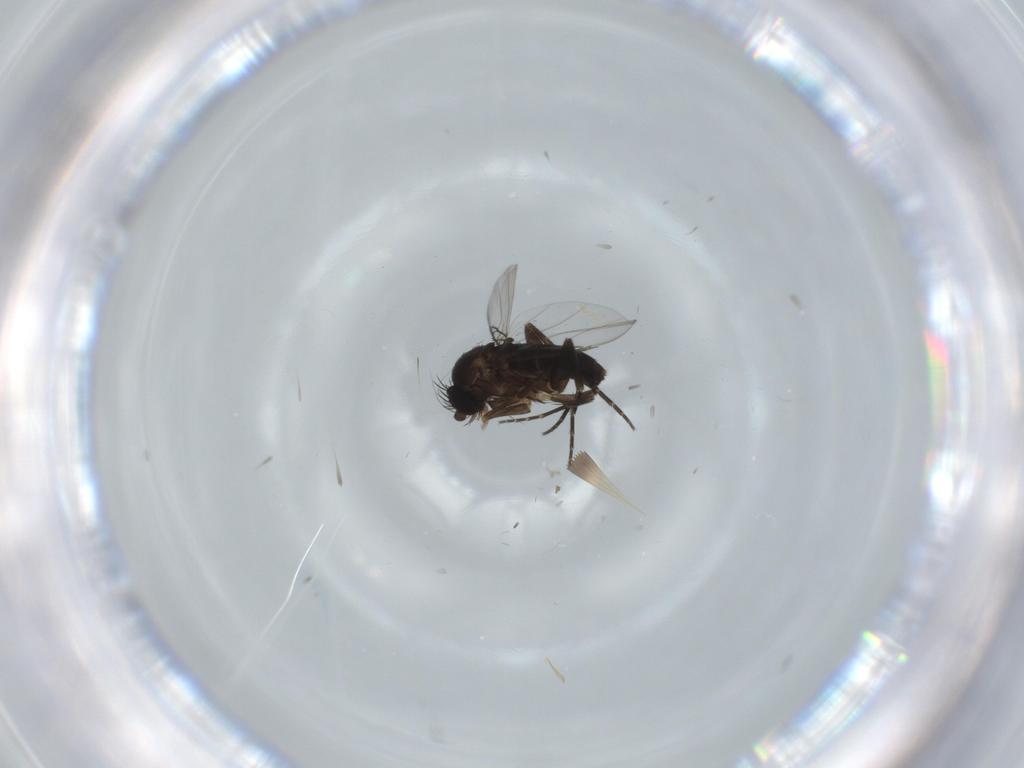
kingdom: Animalia
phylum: Arthropoda
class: Insecta
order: Diptera
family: Phoridae
